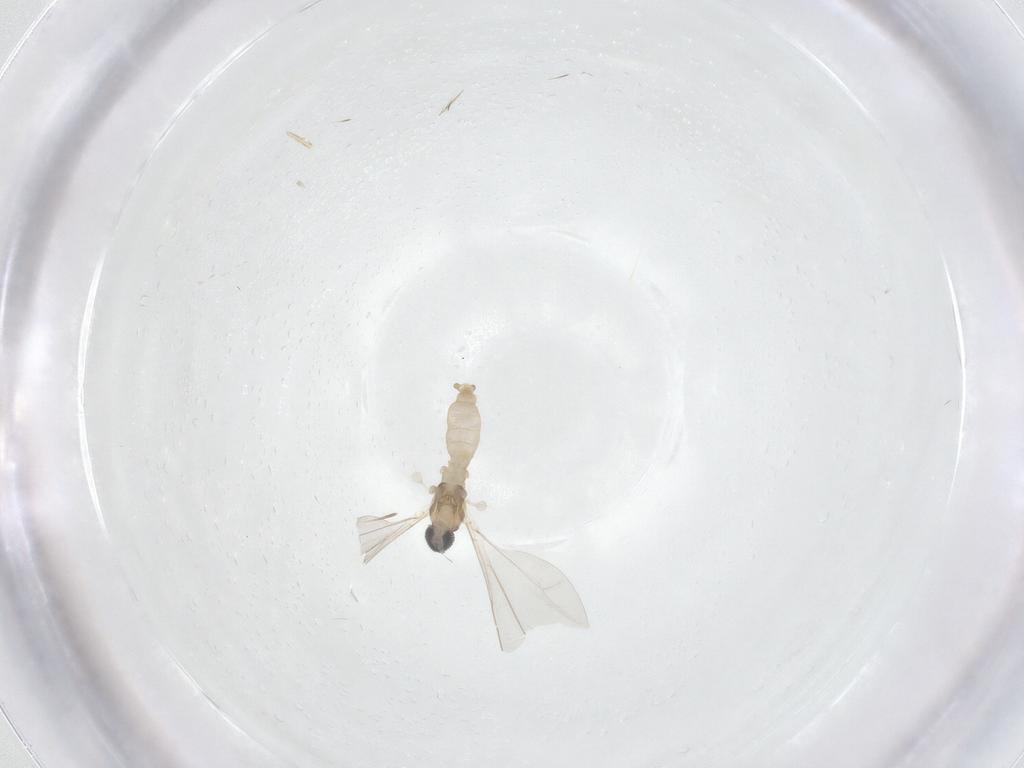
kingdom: Animalia
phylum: Arthropoda
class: Insecta
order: Diptera
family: Cecidomyiidae
